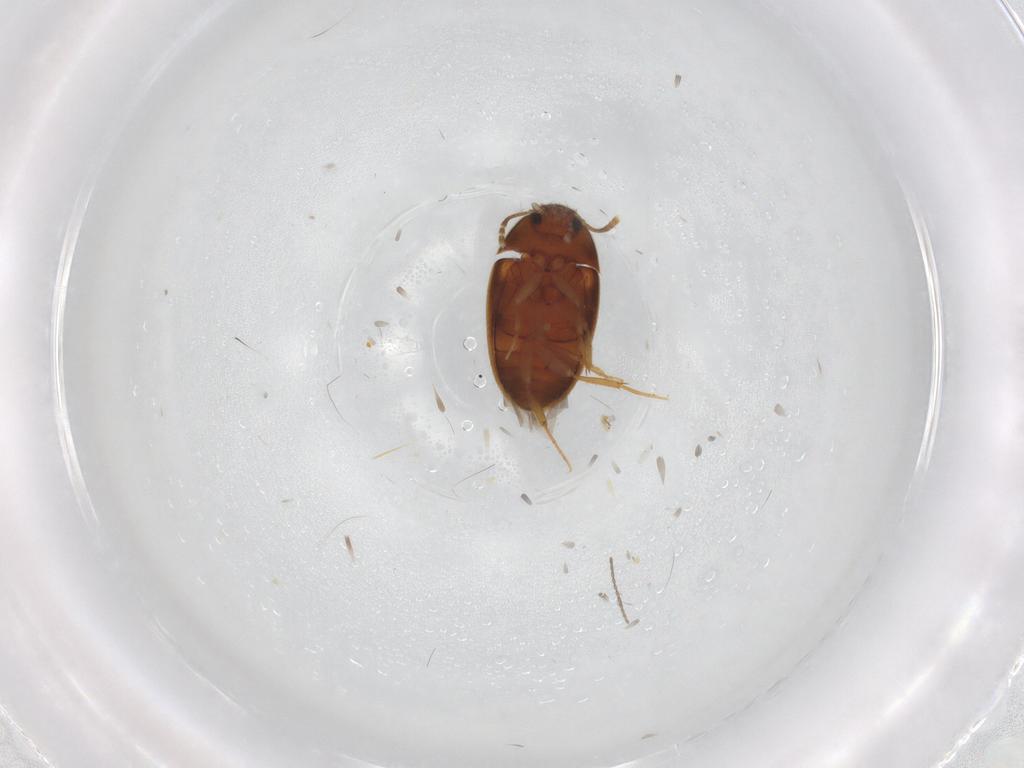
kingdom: Animalia
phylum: Arthropoda
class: Insecta
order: Coleoptera
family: Mycetophagidae
